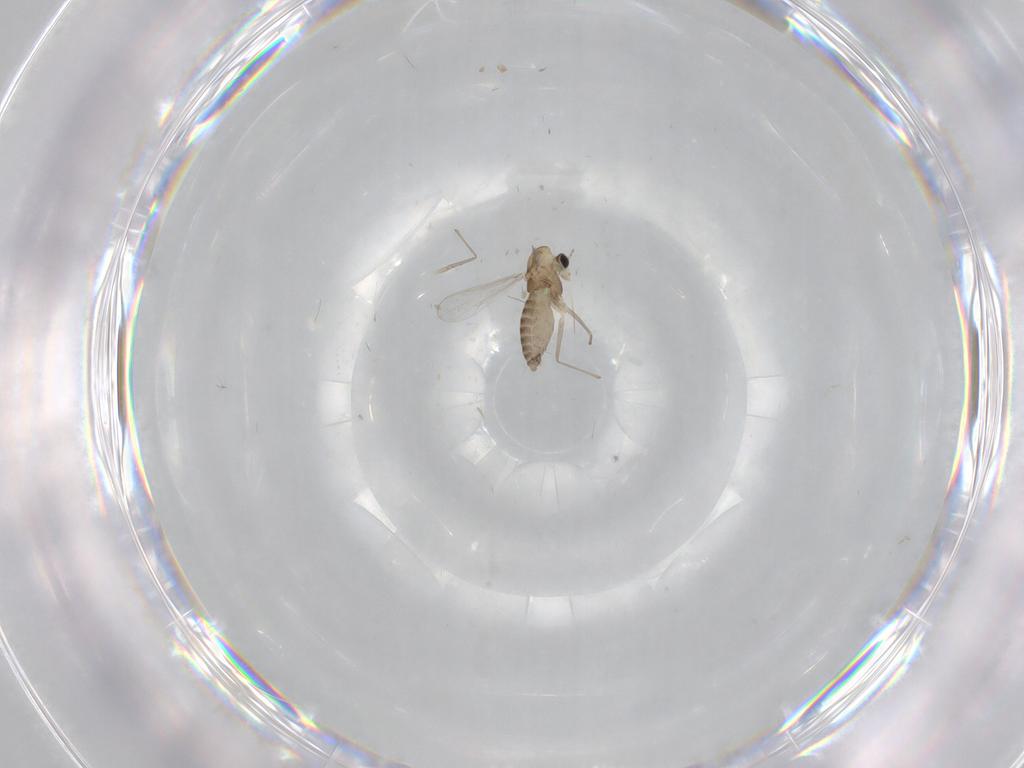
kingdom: Animalia
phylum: Arthropoda
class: Insecta
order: Diptera
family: Chironomidae
